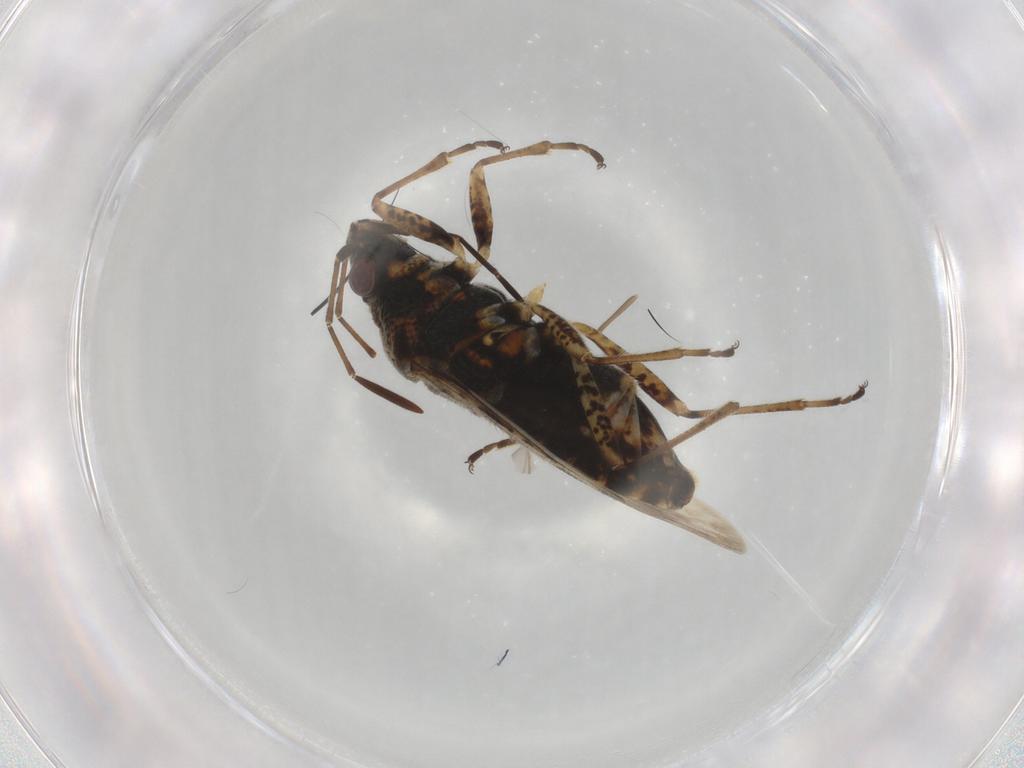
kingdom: Animalia
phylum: Arthropoda
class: Insecta
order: Hemiptera
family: Lygaeidae
